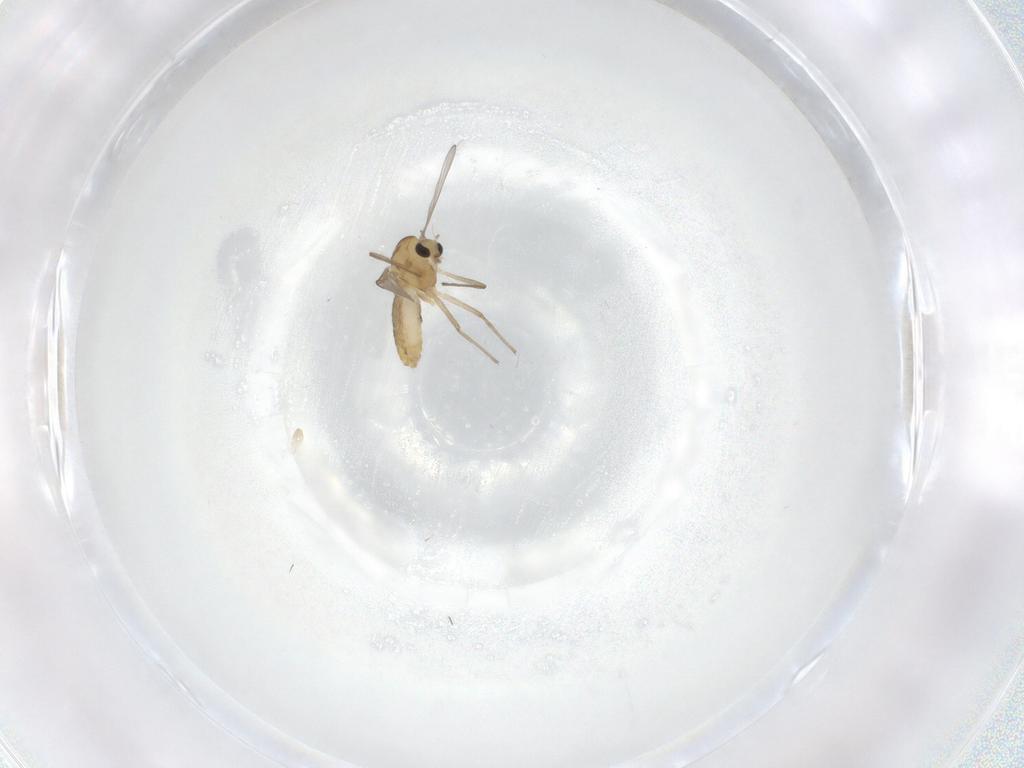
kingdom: Animalia
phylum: Arthropoda
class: Insecta
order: Diptera
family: Chironomidae
